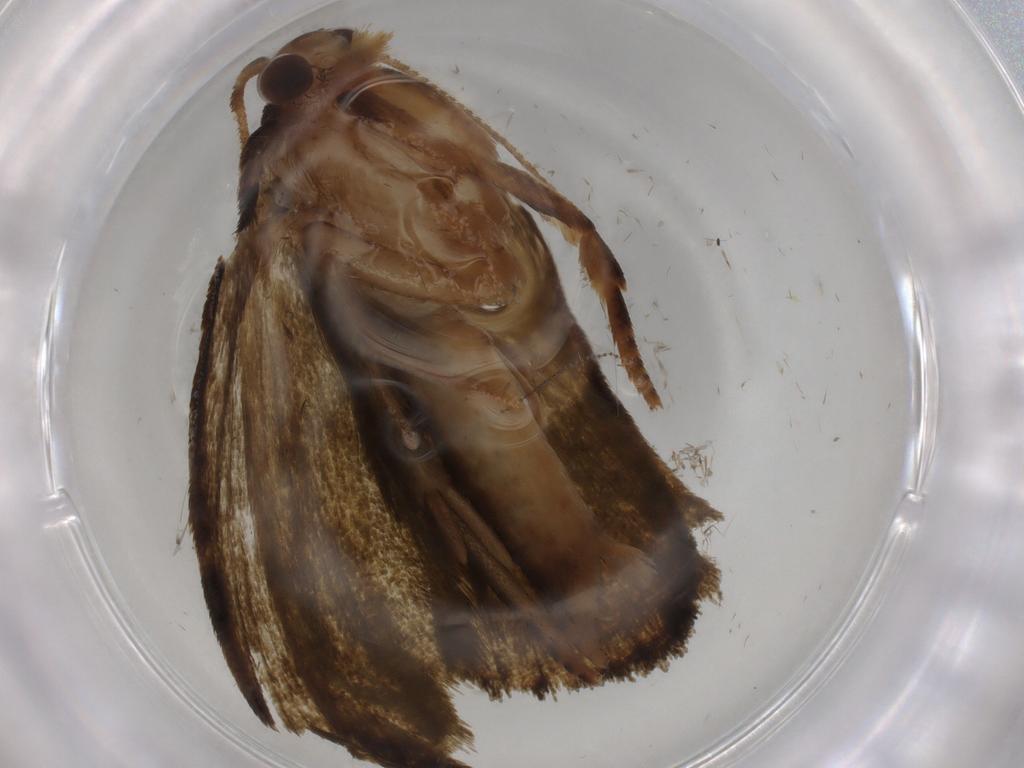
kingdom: Animalia
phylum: Arthropoda
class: Insecta
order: Lepidoptera
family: Geometridae
